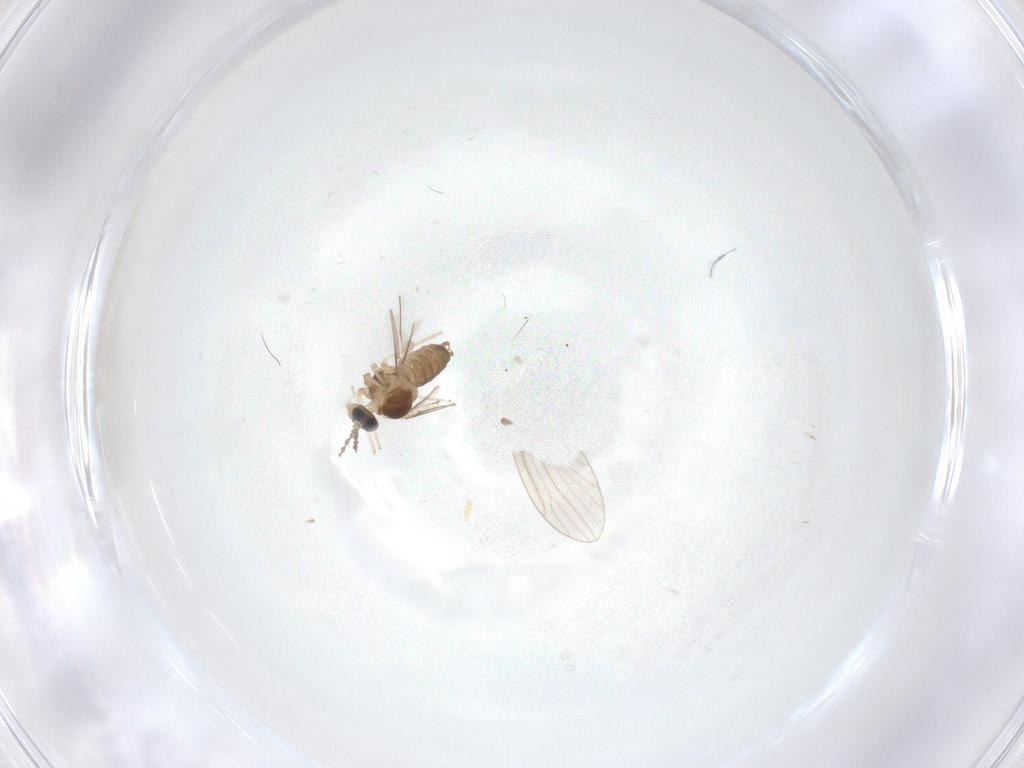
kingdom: Animalia
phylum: Arthropoda
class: Insecta
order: Diptera
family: Cecidomyiidae
